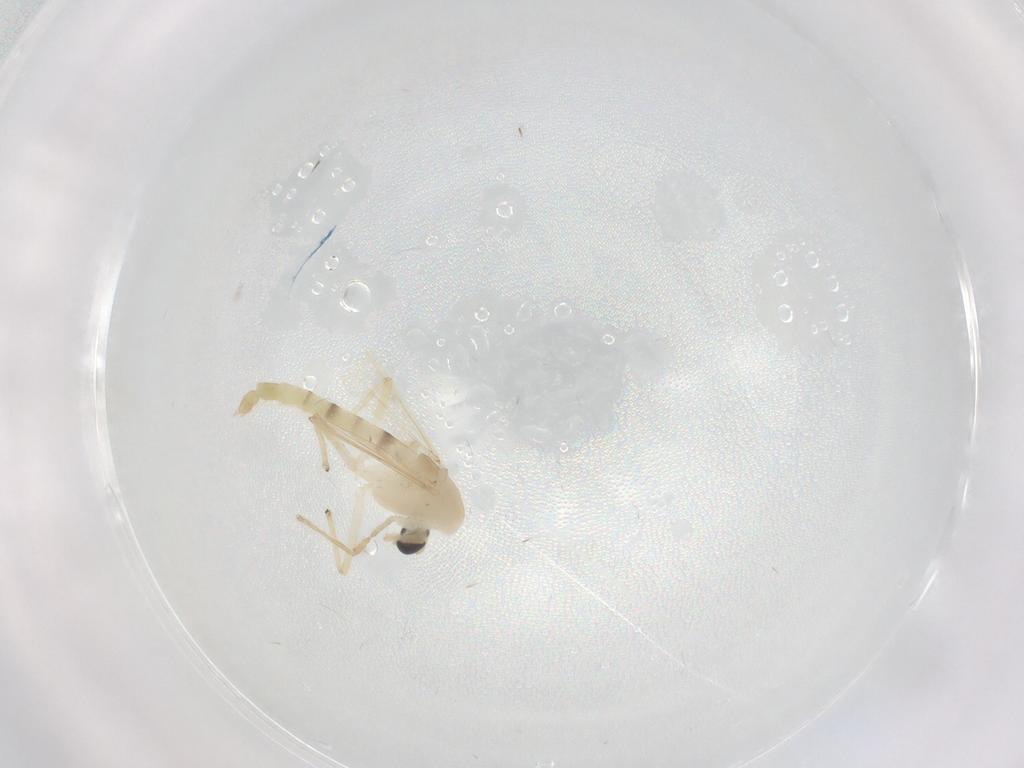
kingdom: Animalia
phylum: Arthropoda
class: Insecta
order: Diptera
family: Chironomidae
